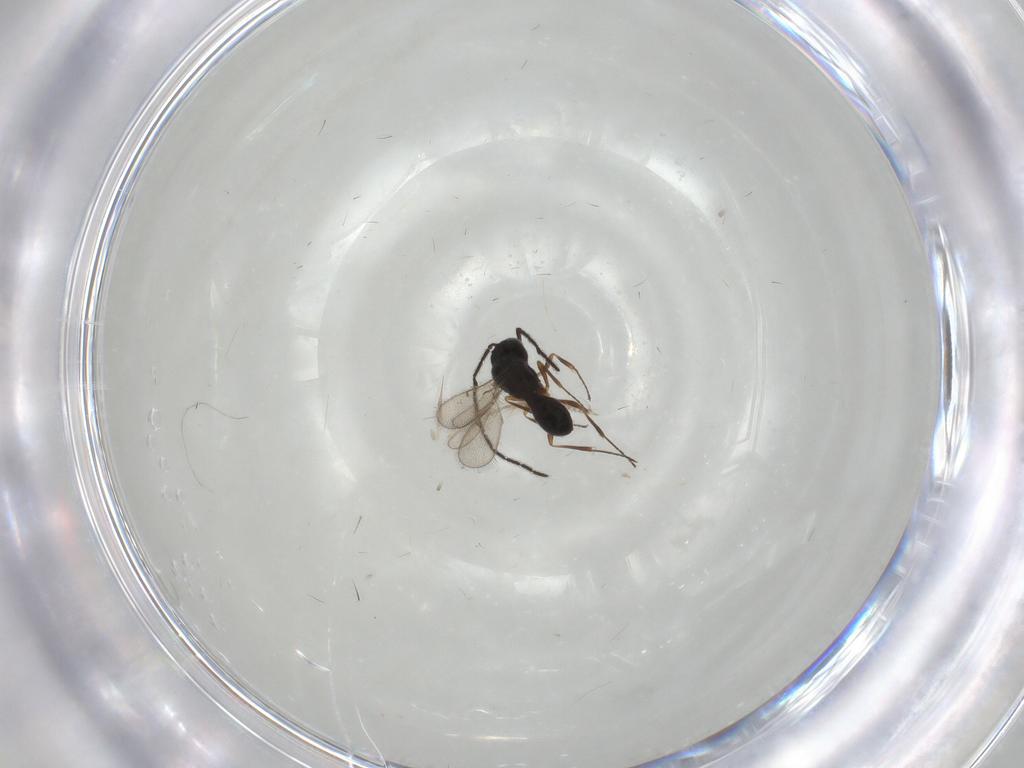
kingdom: Animalia
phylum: Arthropoda
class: Insecta
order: Hymenoptera
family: Scelionidae
